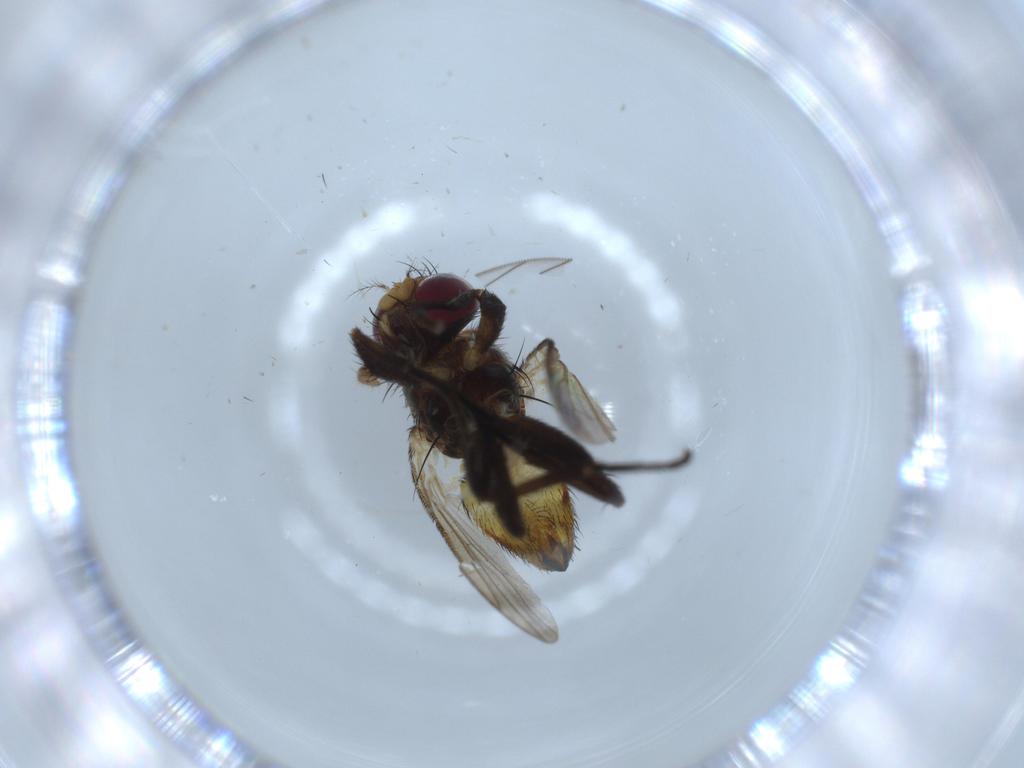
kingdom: Animalia
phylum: Arthropoda
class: Insecta
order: Diptera
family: Anthomyiidae
